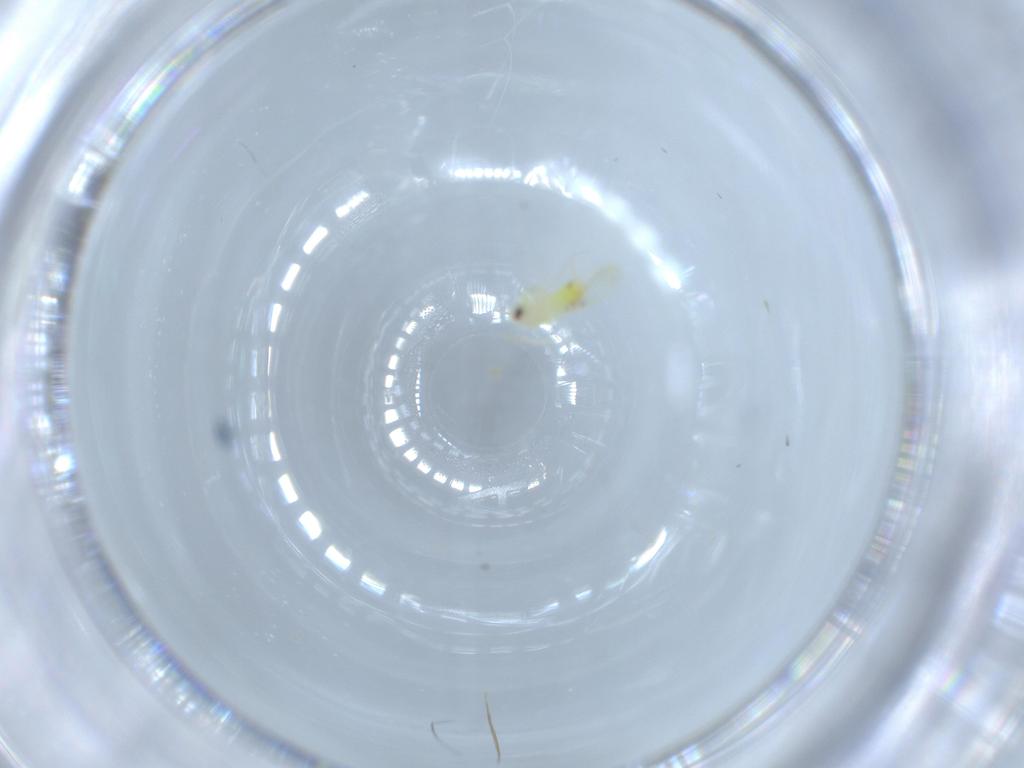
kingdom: Animalia
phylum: Arthropoda
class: Insecta
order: Hemiptera
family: Aleyrodidae
